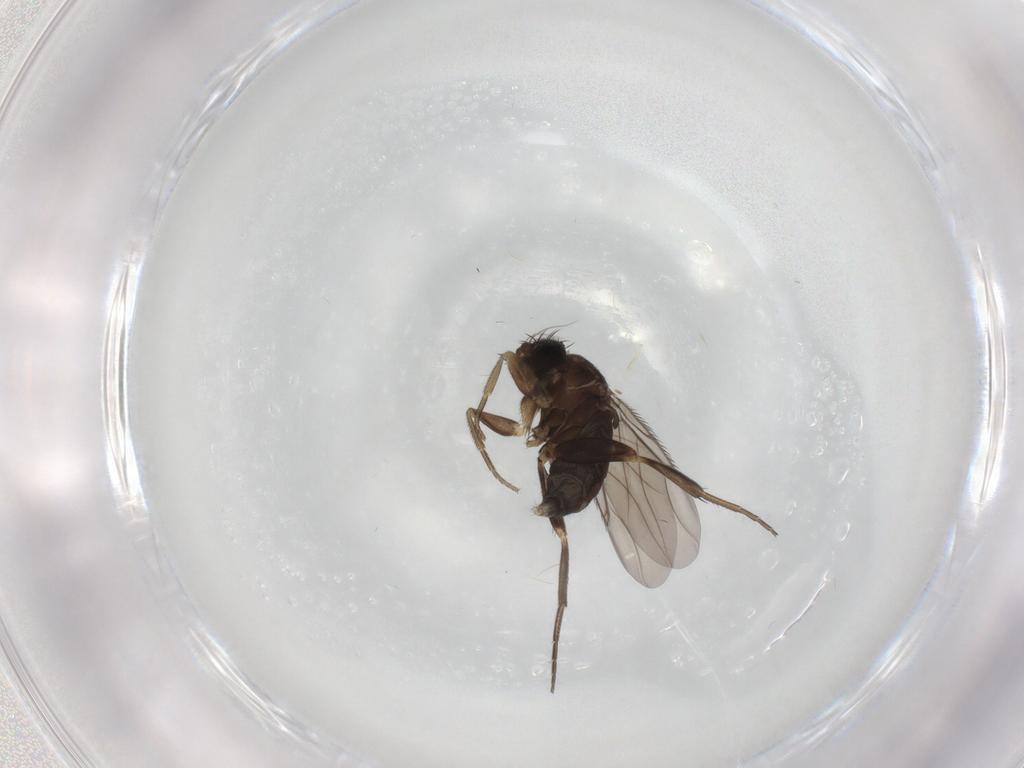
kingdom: Animalia
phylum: Arthropoda
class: Insecta
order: Diptera
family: Phoridae
